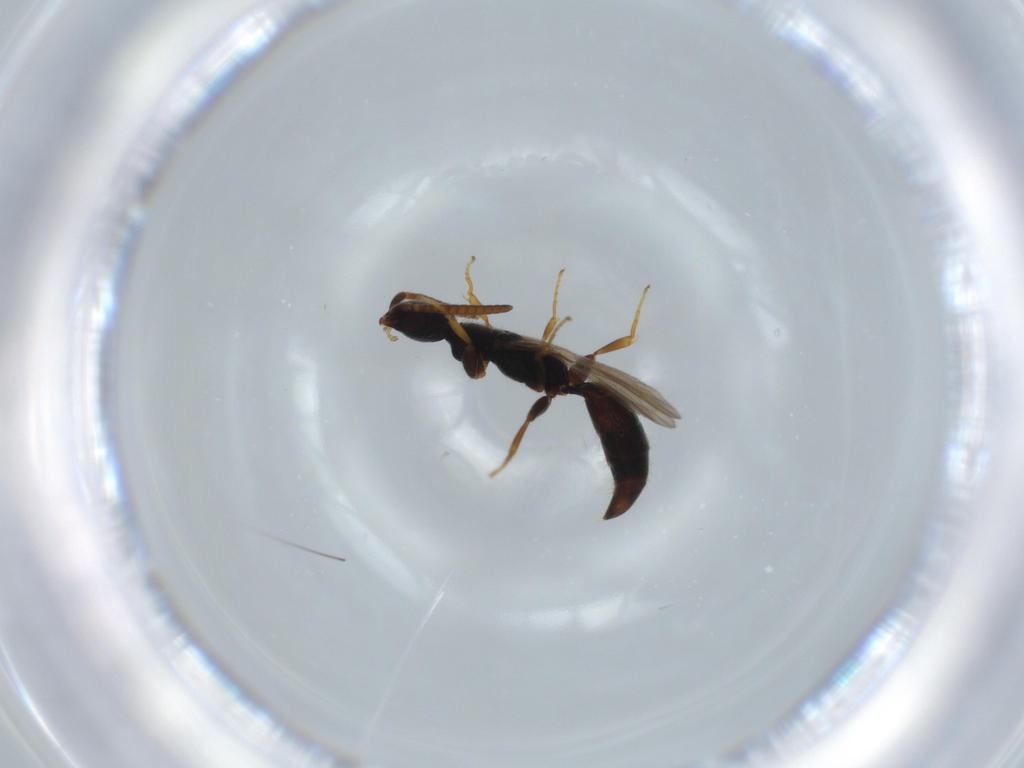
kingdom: Animalia
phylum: Arthropoda
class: Insecta
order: Hymenoptera
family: Bethylidae
